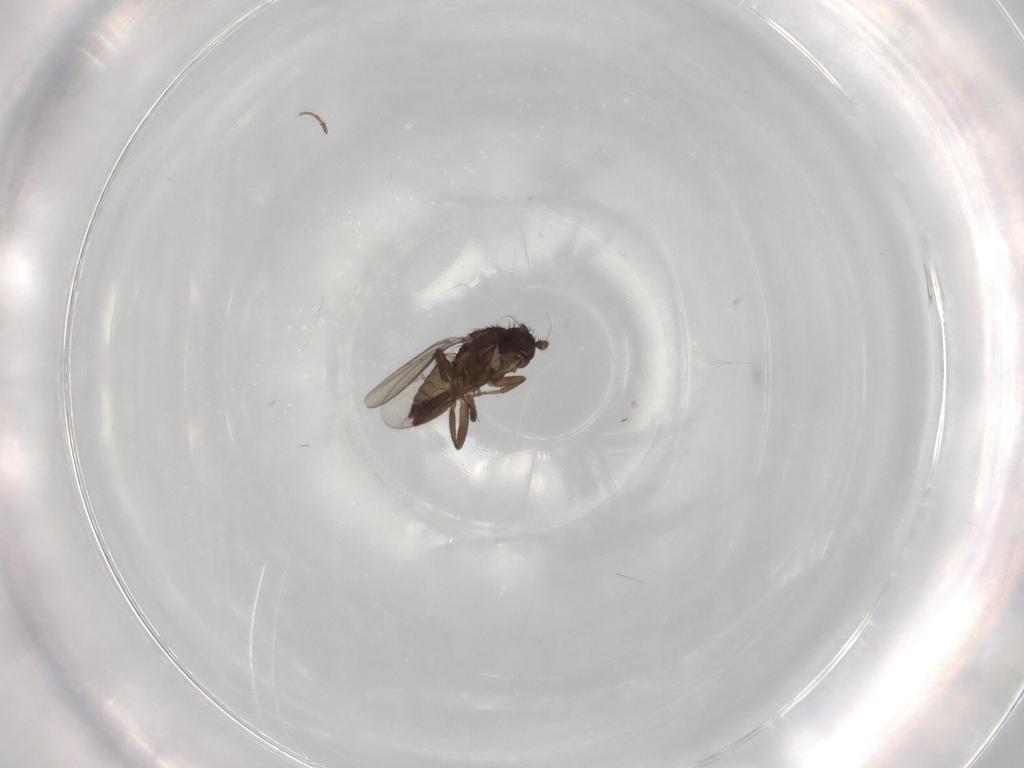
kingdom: Animalia
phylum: Arthropoda
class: Insecta
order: Diptera
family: Sphaeroceridae
